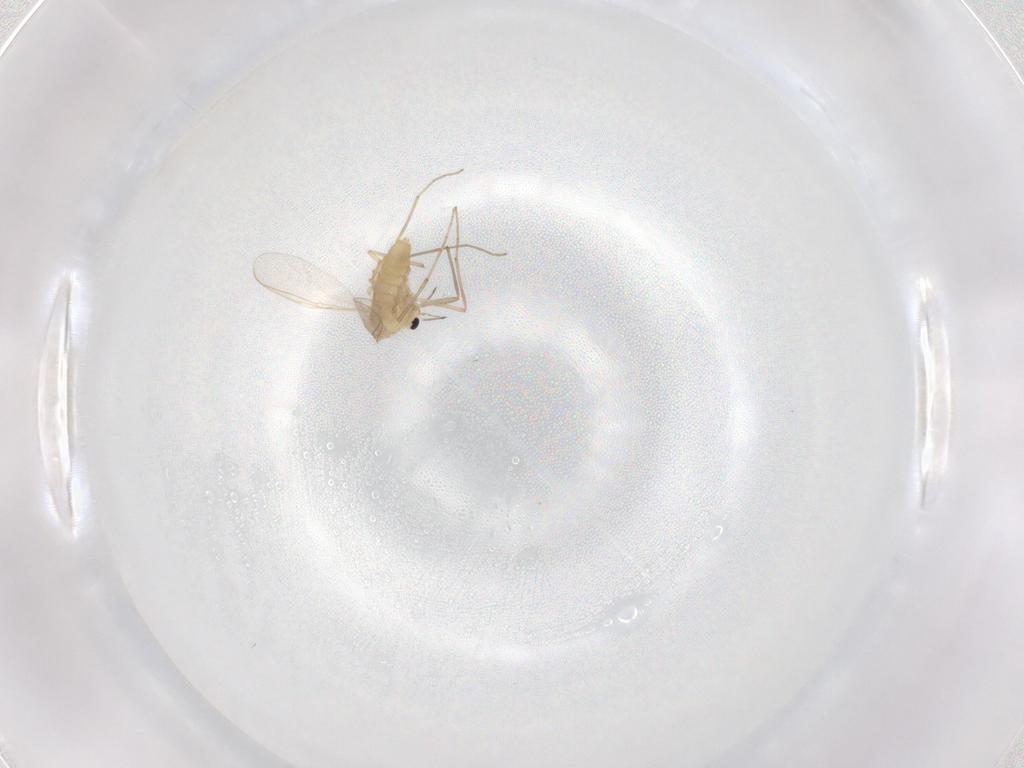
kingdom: Animalia
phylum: Arthropoda
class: Insecta
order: Diptera
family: Chironomidae
